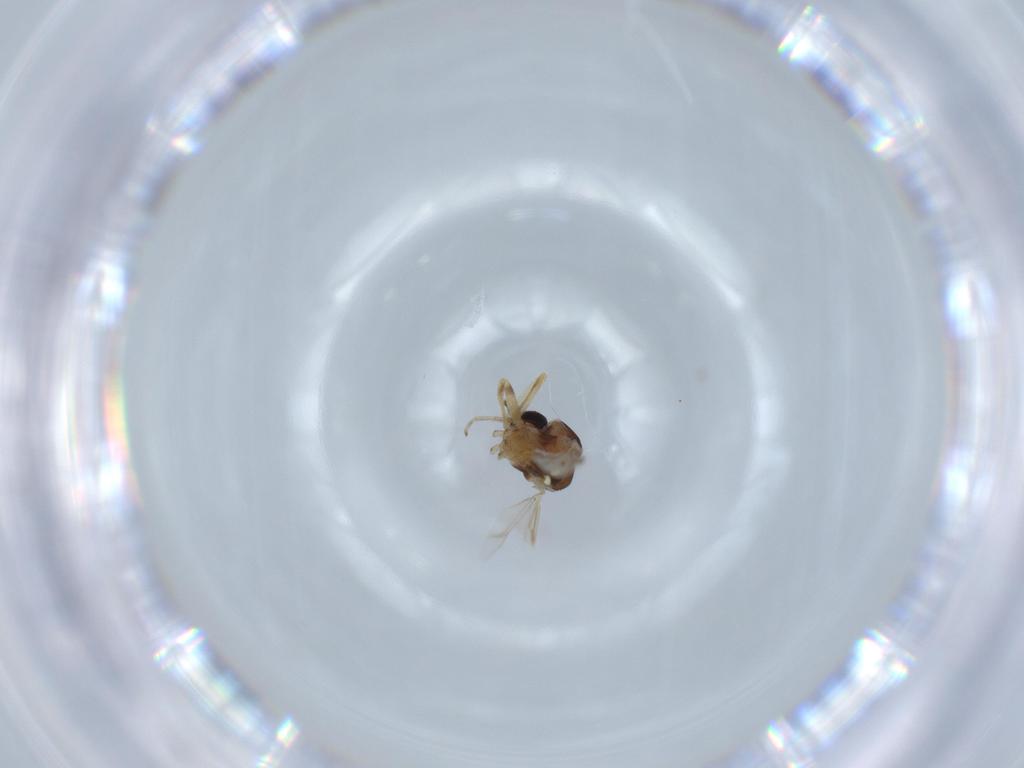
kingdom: Animalia
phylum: Arthropoda
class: Insecta
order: Diptera
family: Ceratopogonidae
